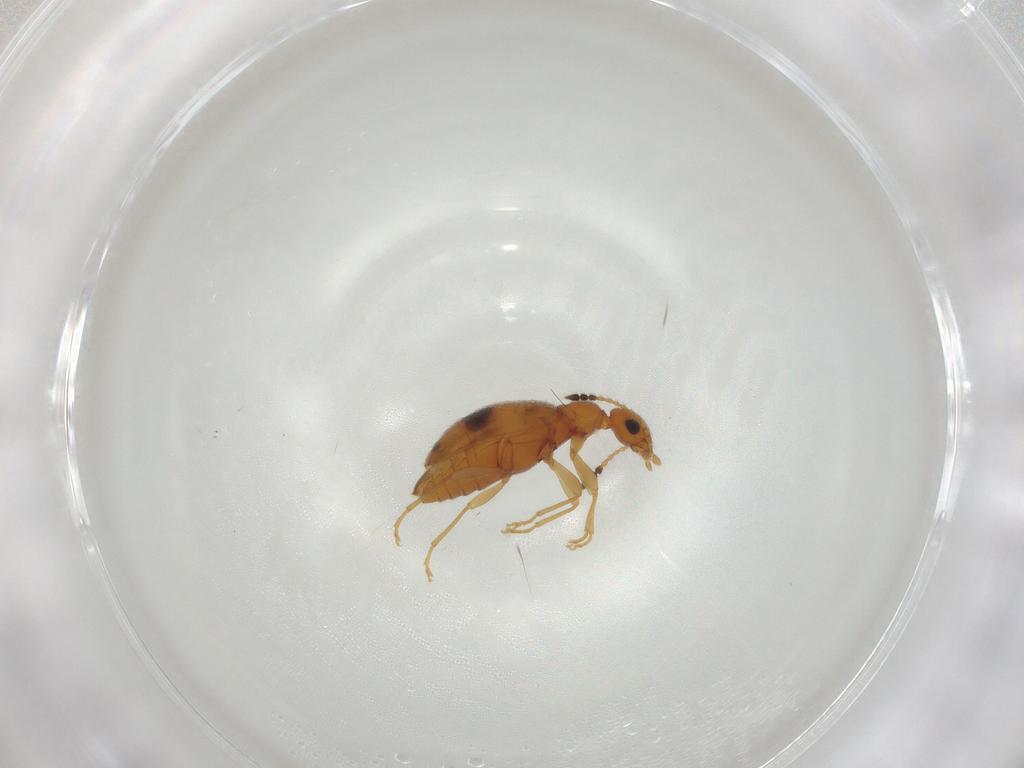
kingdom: Animalia
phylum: Arthropoda
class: Insecta
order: Coleoptera
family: Anthicidae
